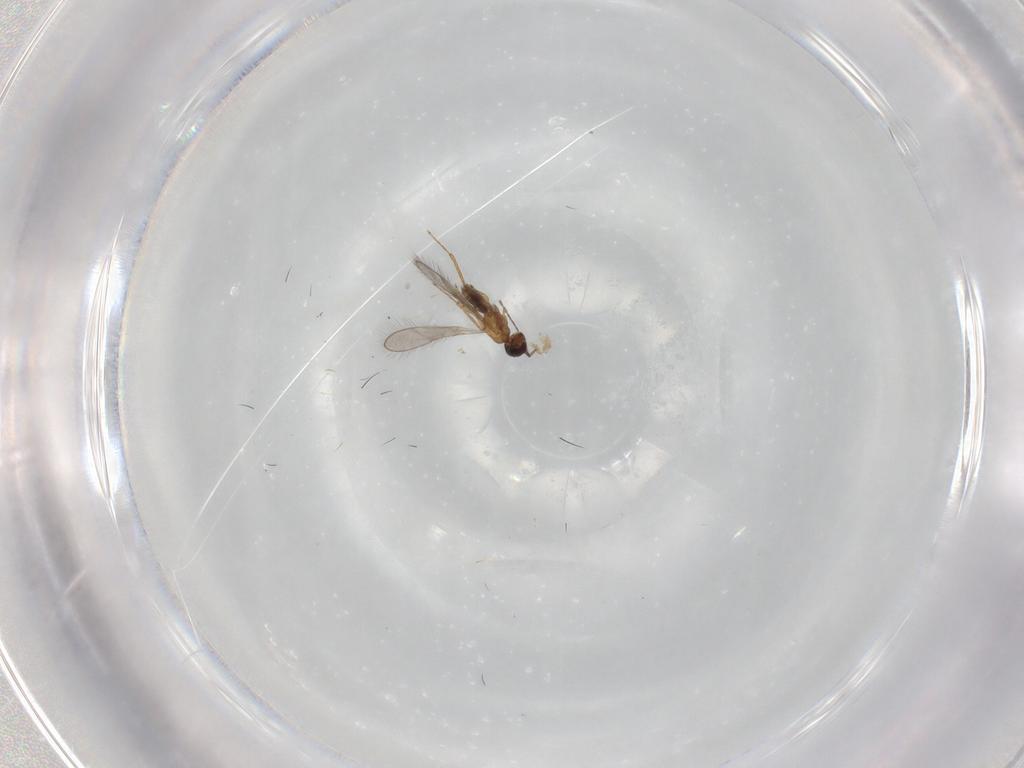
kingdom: Animalia
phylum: Arthropoda
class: Insecta
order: Hymenoptera
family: Mymaridae
